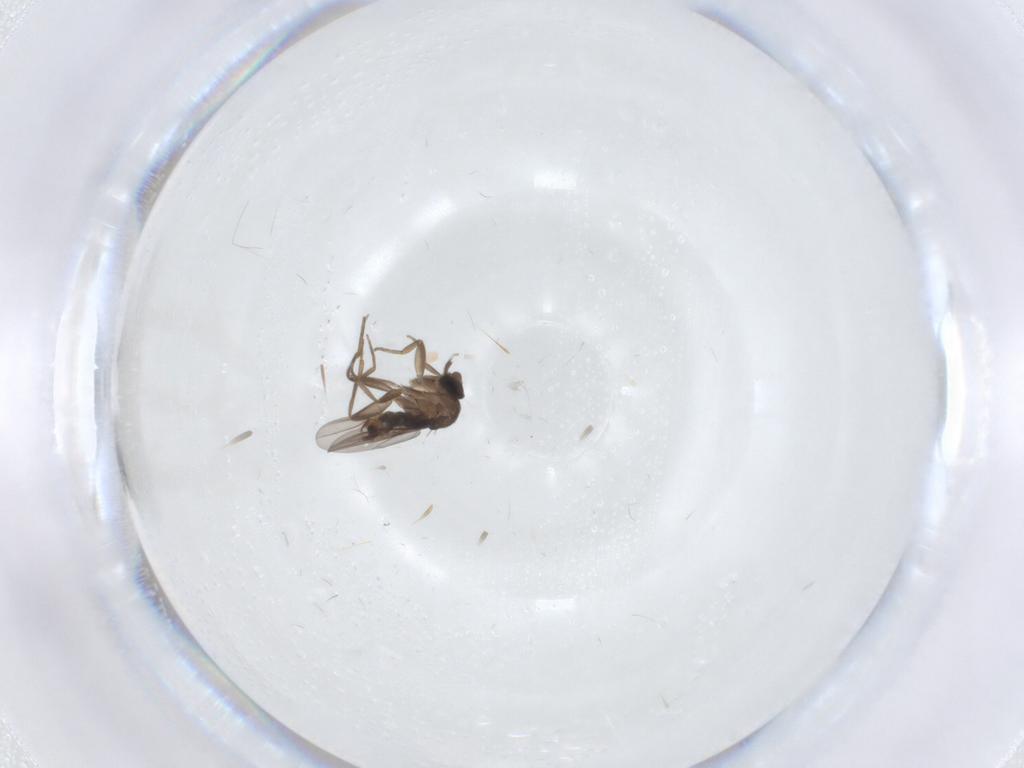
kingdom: Animalia
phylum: Arthropoda
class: Insecta
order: Diptera
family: Phoridae
